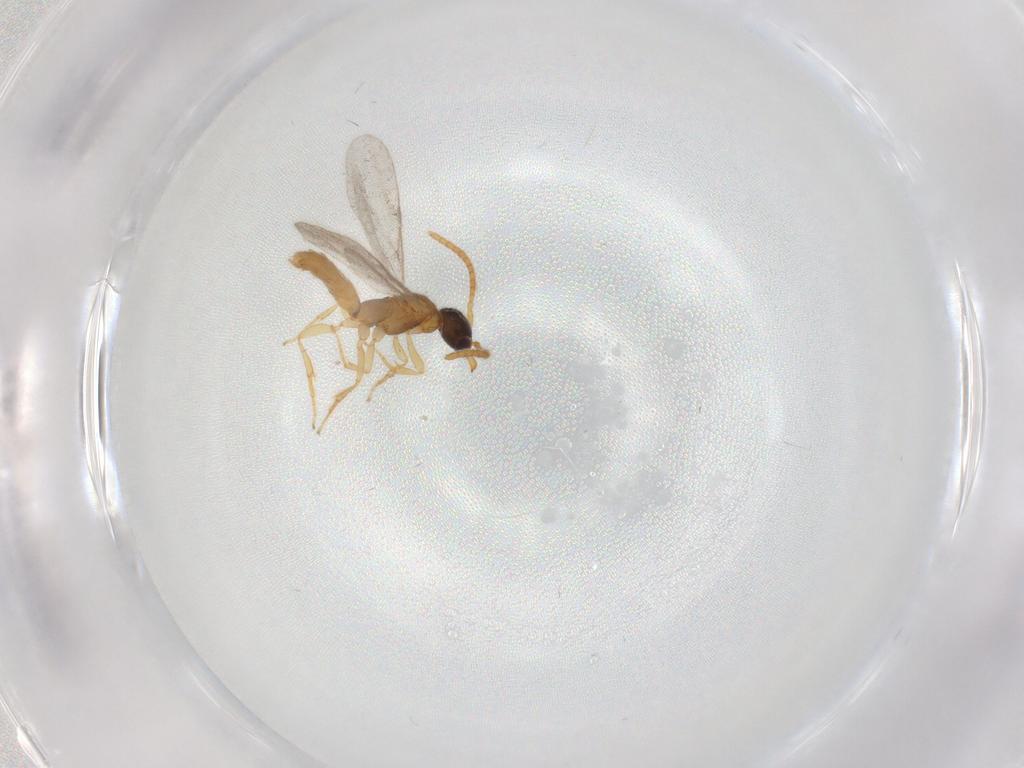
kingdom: Animalia
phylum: Arthropoda
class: Insecta
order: Hymenoptera
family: Bethylidae
